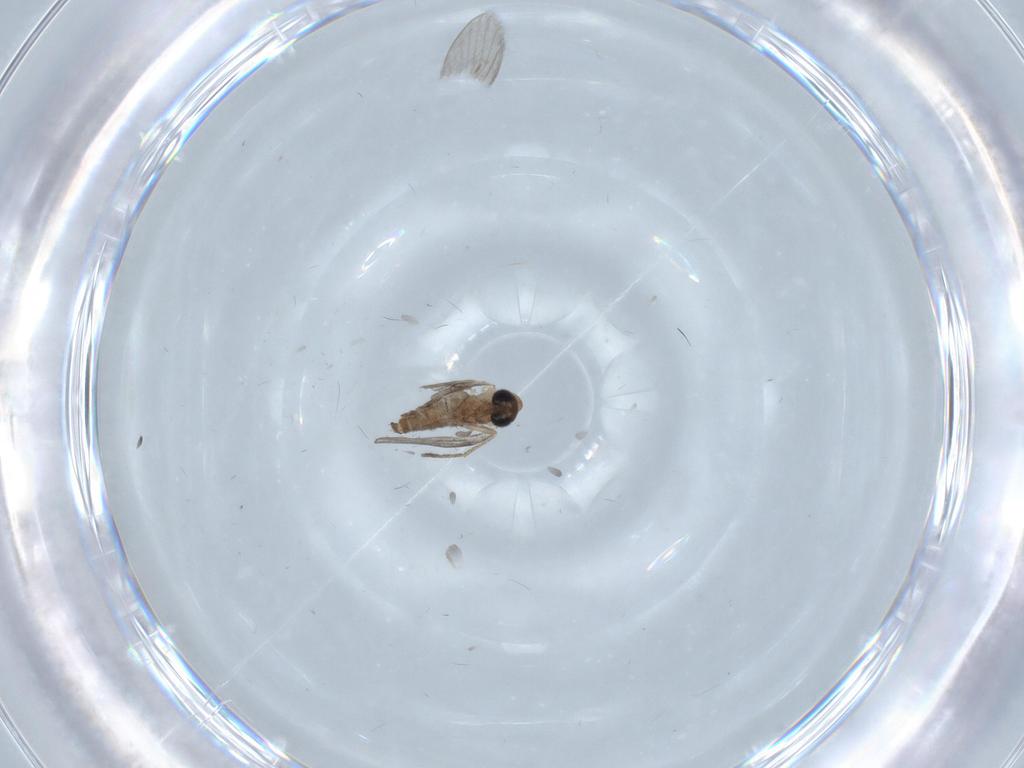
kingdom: Animalia
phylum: Arthropoda
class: Insecta
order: Diptera
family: Psychodidae
